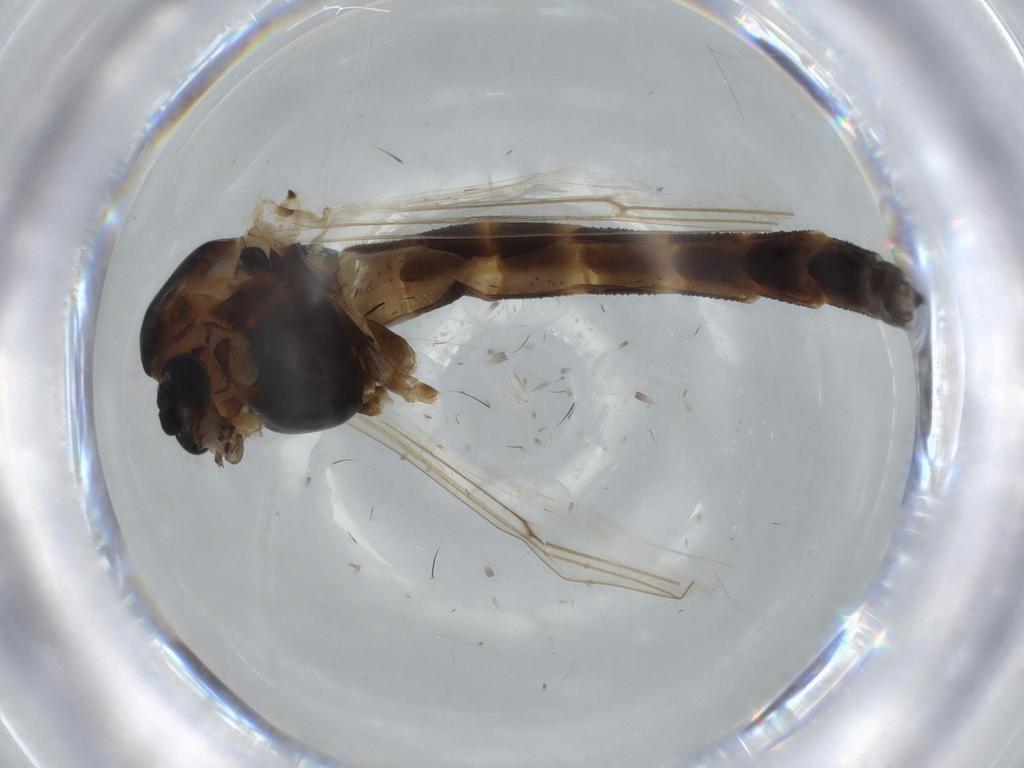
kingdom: Animalia
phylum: Arthropoda
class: Insecta
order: Diptera
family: Chironomidae
